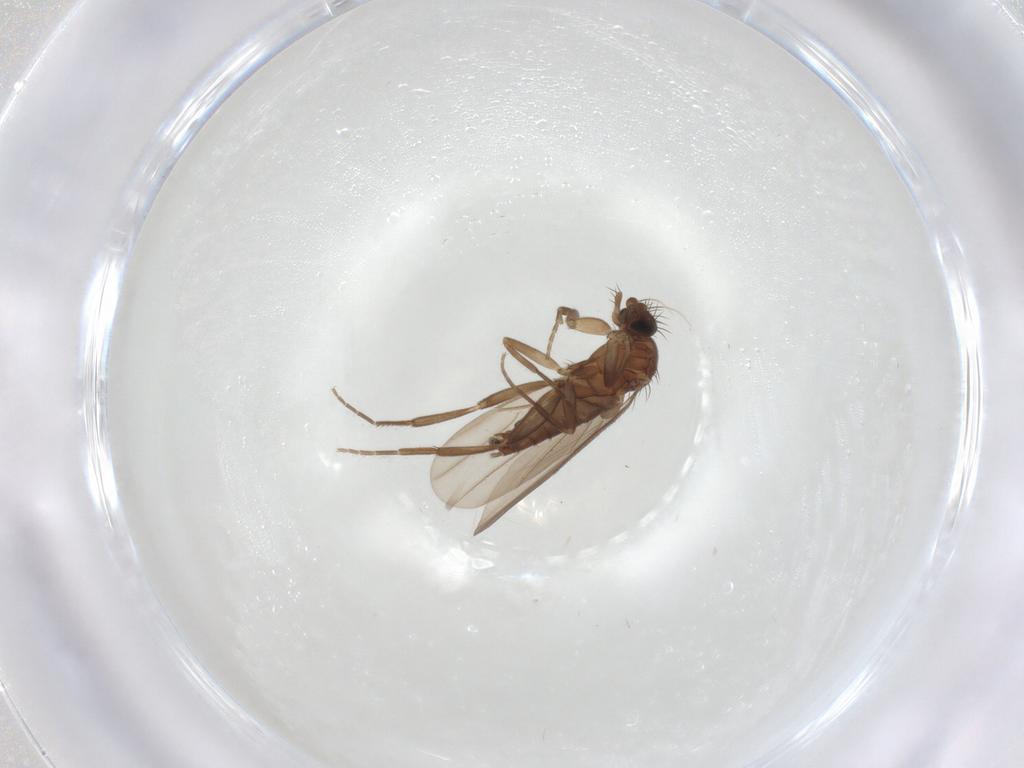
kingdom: Animalia
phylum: Arthropoda
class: Insecta
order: Diptera
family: Phoridae
